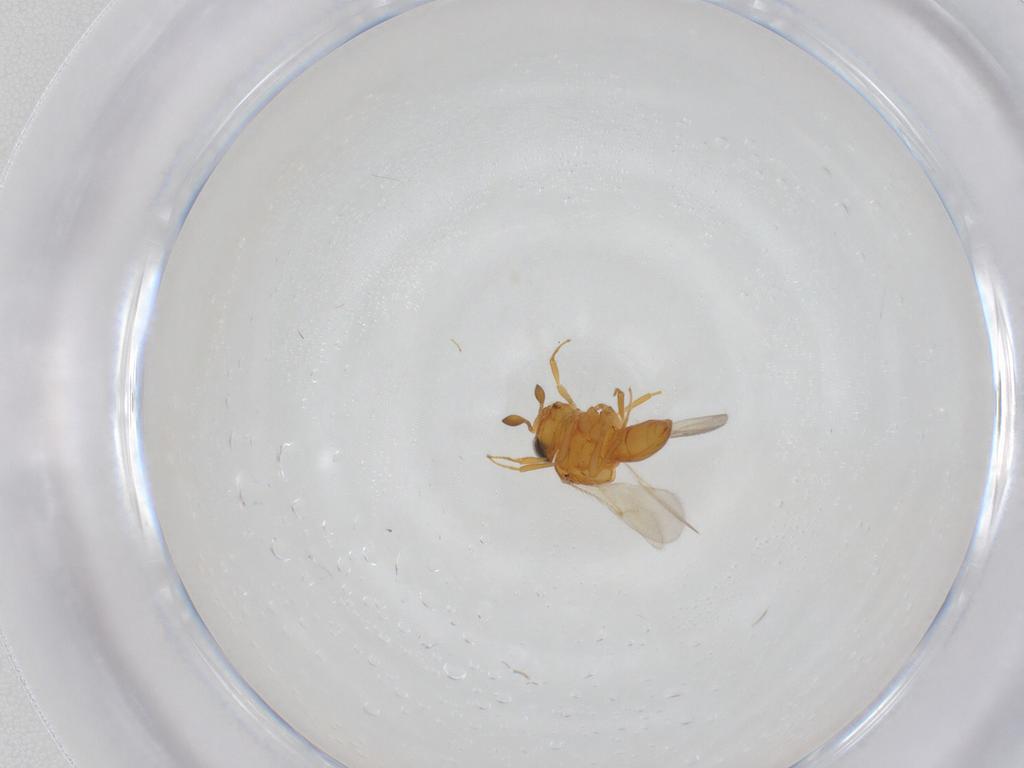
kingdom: Animalia
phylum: Arthropoda
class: Insecta
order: Hymenoptera
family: Scelionidae
